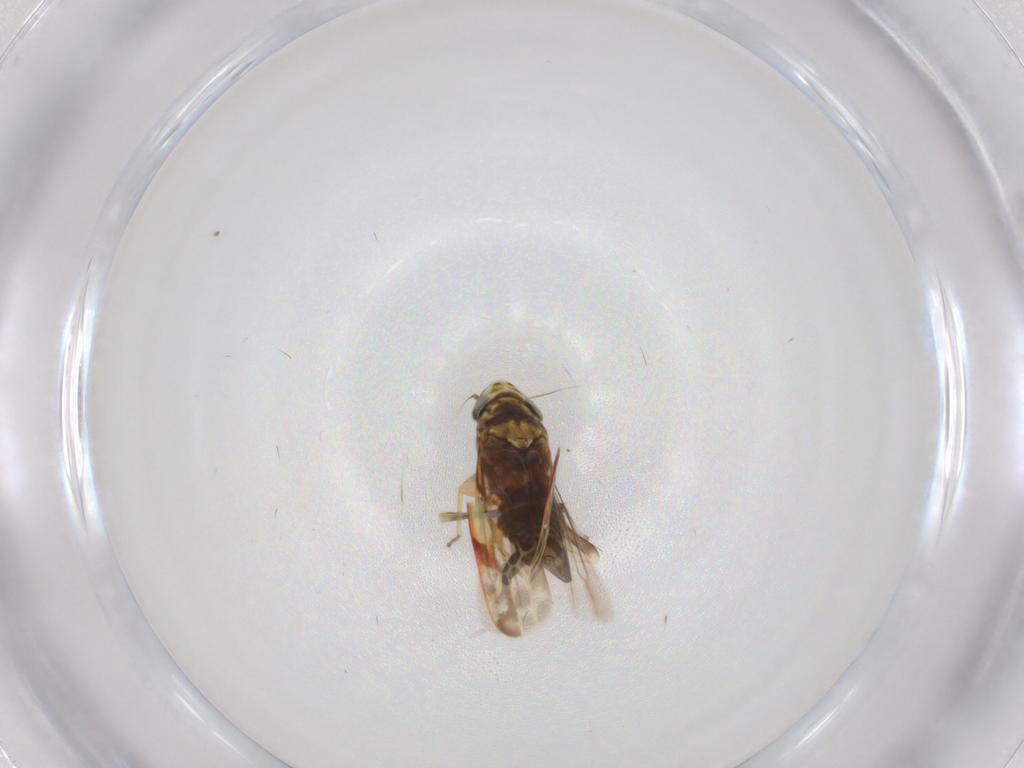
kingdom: Animalia
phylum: Arthropoda
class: Insecta
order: Hemiptera
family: Cicadellidae
